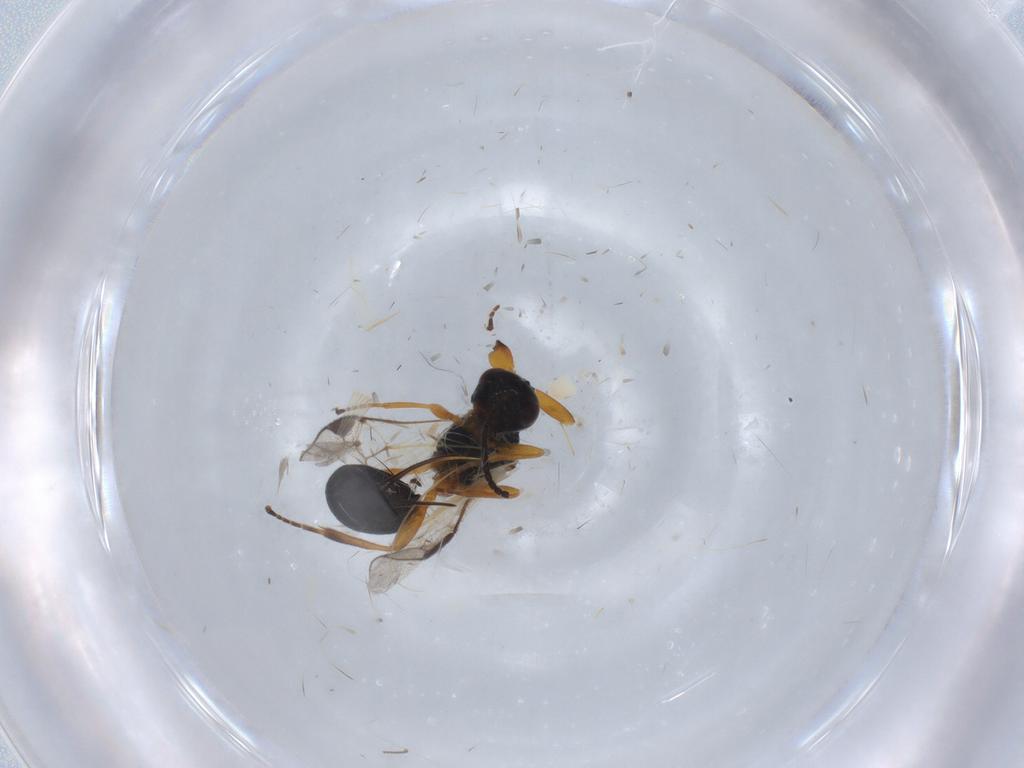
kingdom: Animalia
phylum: Arthropoda
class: Insecta
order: Hymenoptera
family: Braconidae
